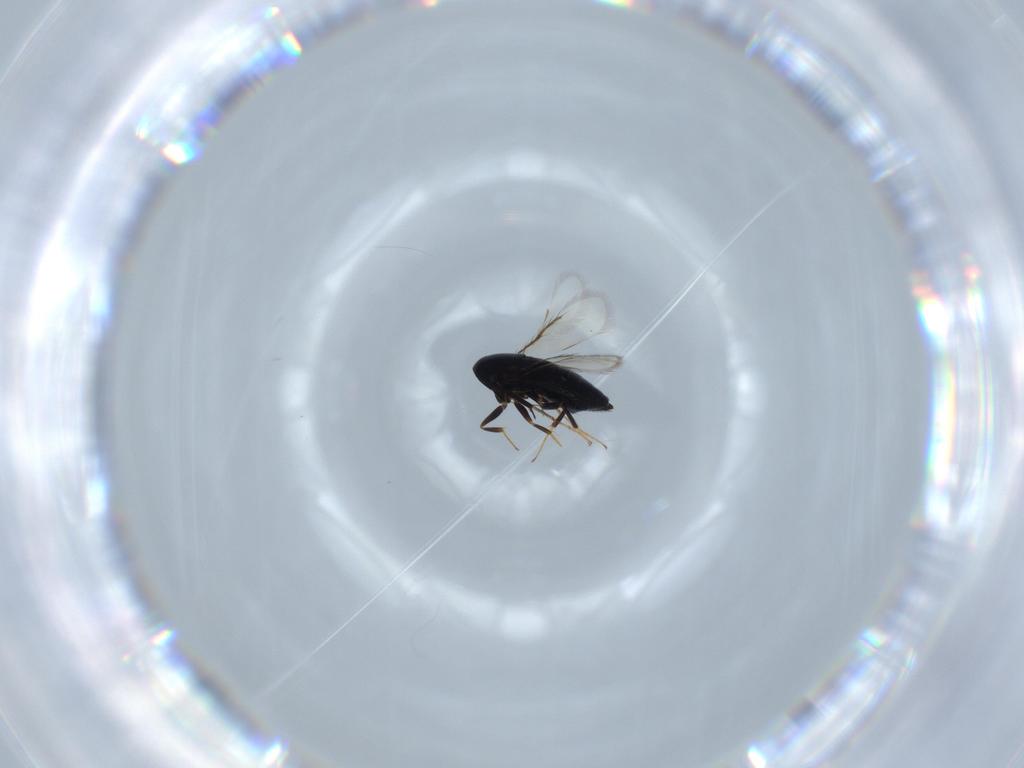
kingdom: Animalia
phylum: Arthropoda
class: Insecta
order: Hymenoptera
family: Signiphoridae
